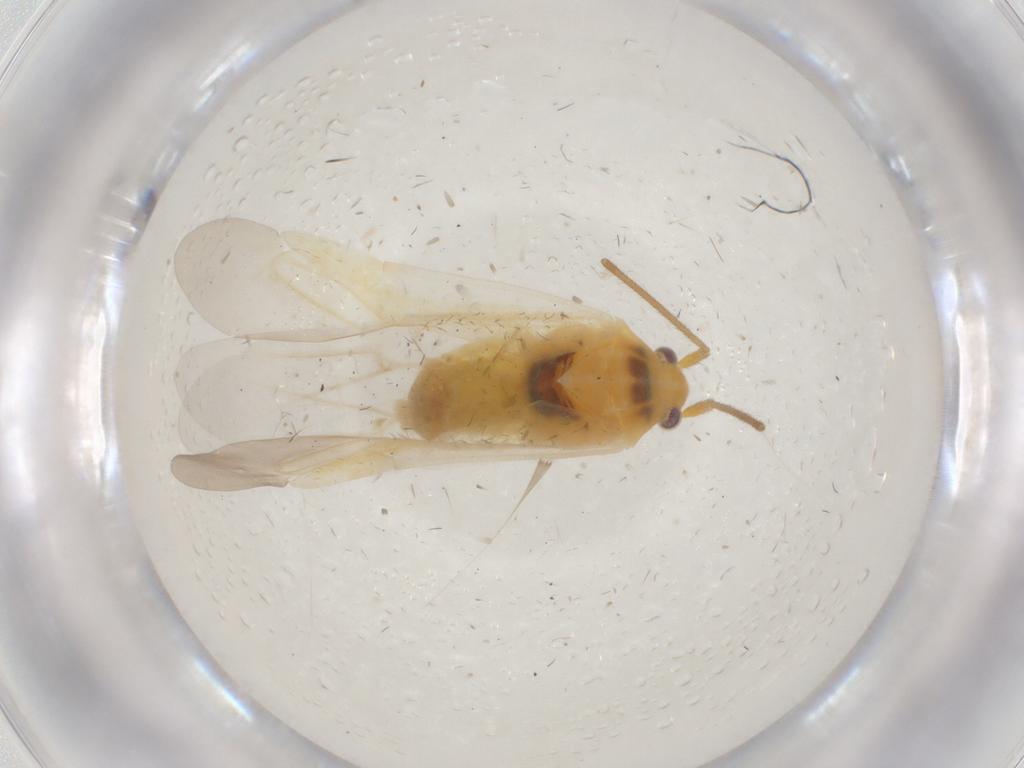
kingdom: Animalia
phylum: Arthropoda
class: Insecta
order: Hemiptera
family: Miridae
